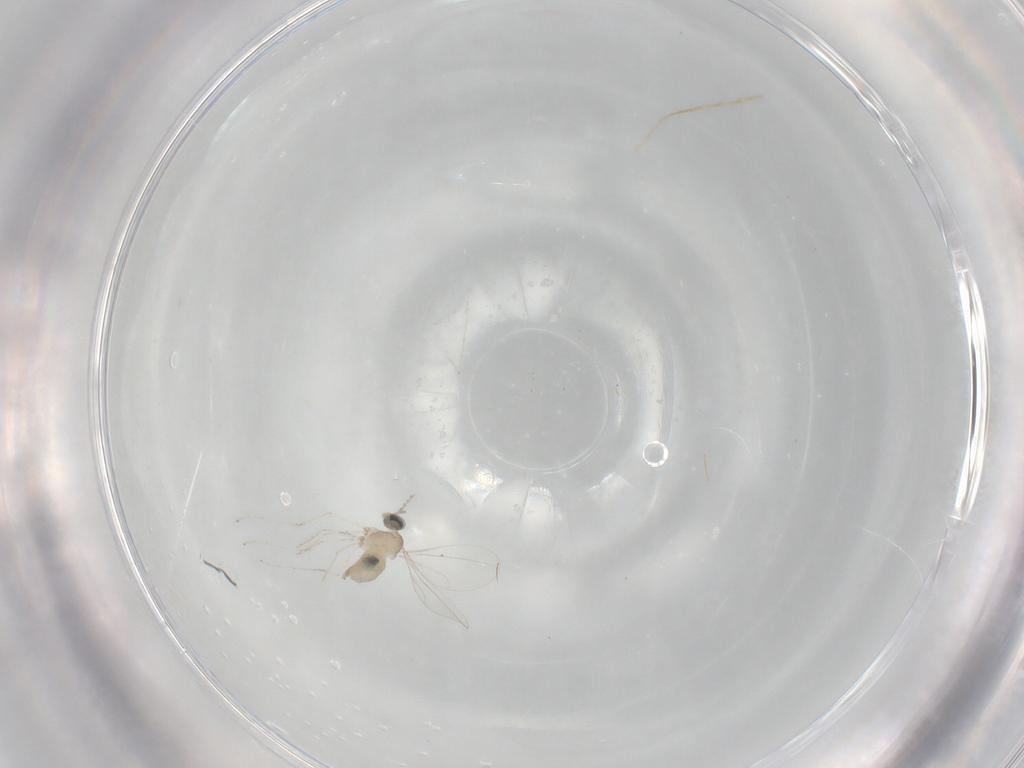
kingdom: Animalia
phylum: Arthropoda
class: Insecta
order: Diptera
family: Cecidomyiidae
